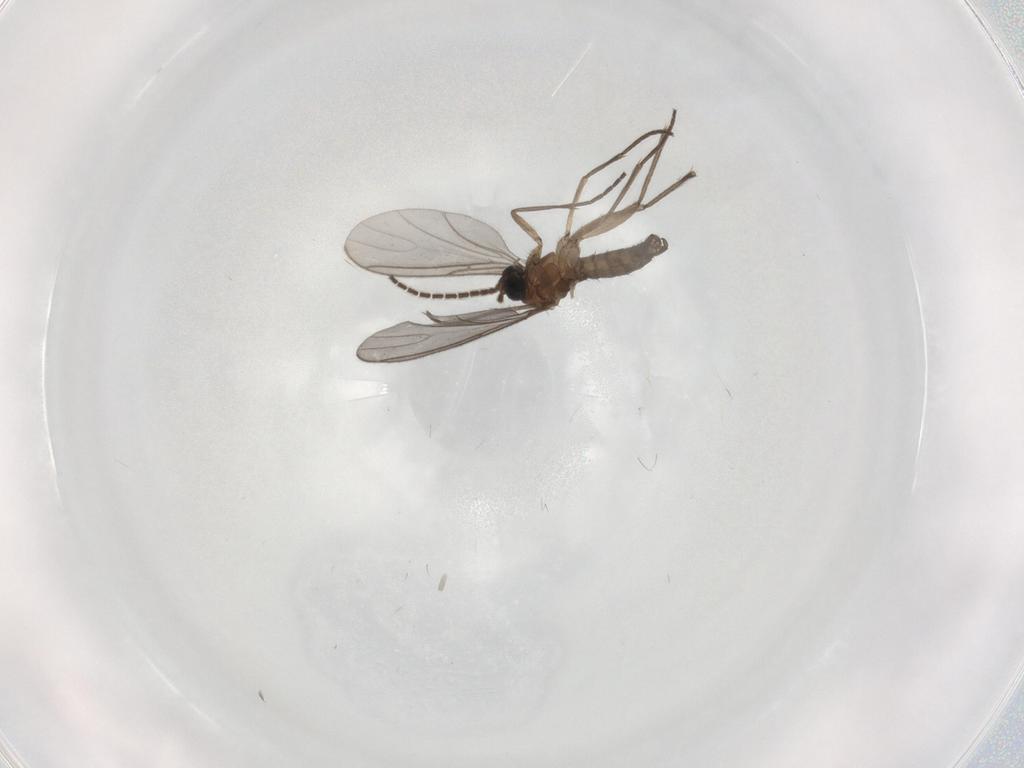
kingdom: Animalia
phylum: Arthropoda
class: Insecta
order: Diptera
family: Sciaridae
